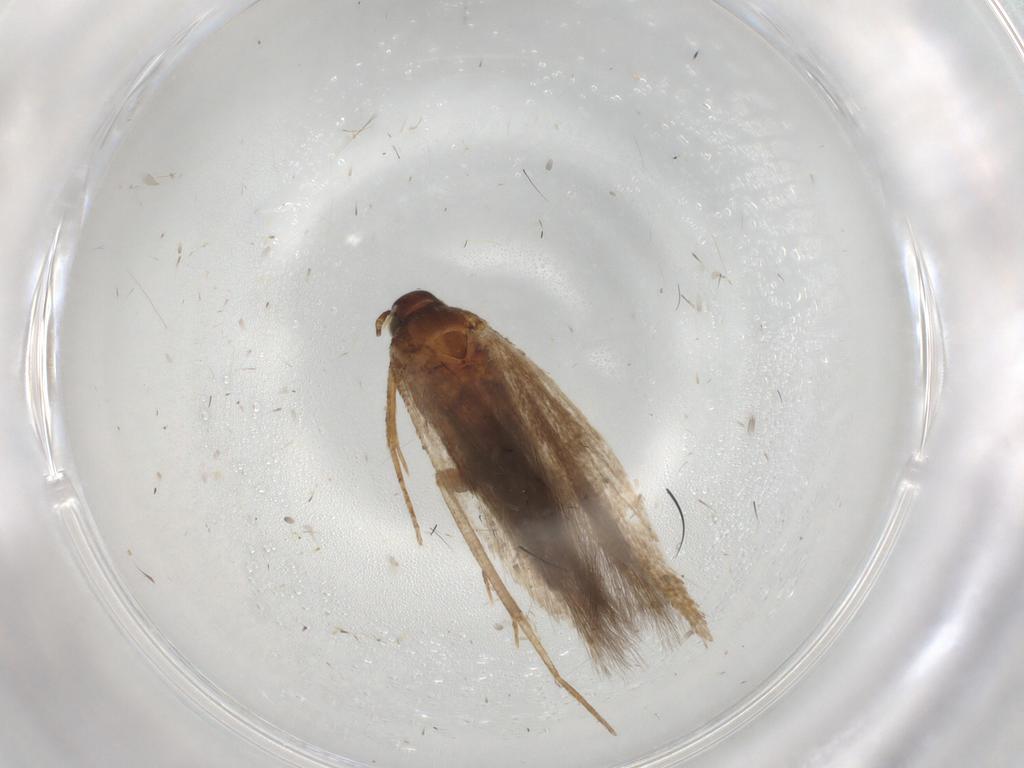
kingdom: Animalia
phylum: Arthropoda
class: Insecta
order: Lepidoptera
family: Gelechiidae
